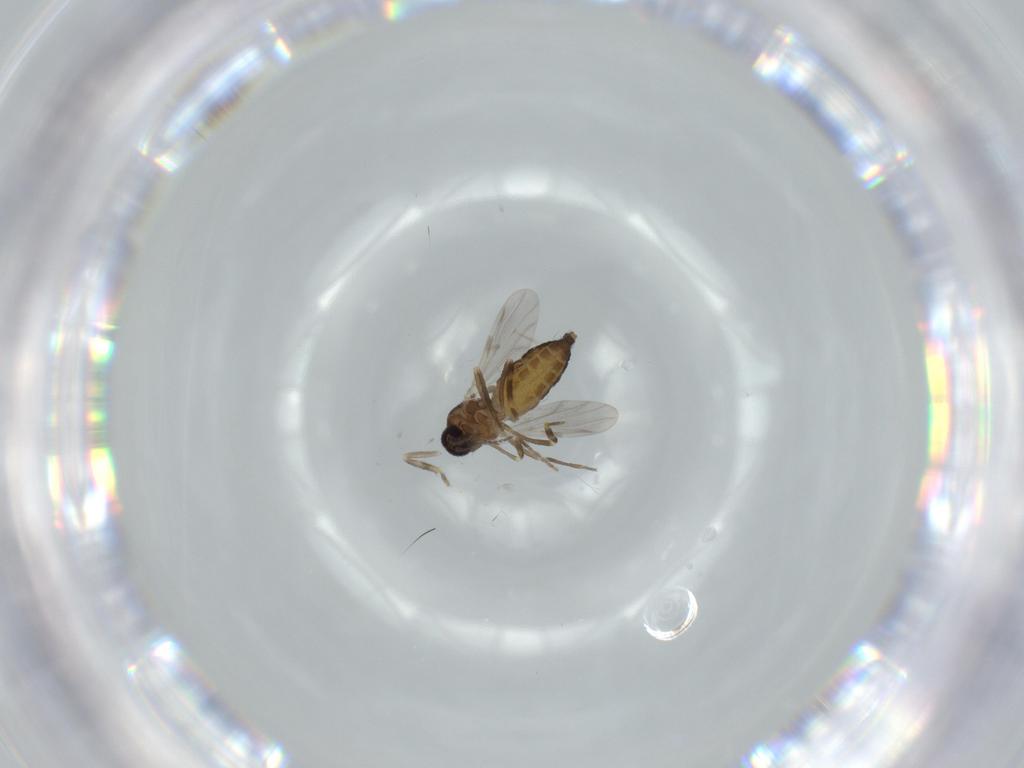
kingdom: Animalia
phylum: Arthropoda
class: Insecta
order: Diptera
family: Ceratopogonidae
